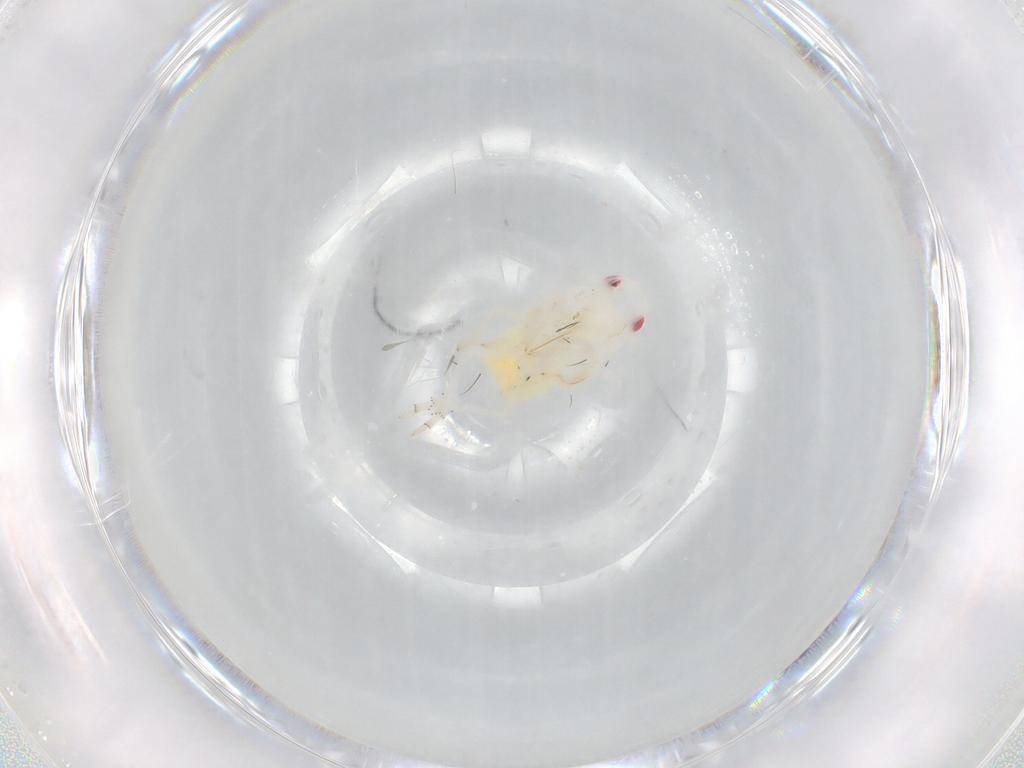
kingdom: Animalia
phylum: Arthropoda
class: Insecta
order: Hemiptera
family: Flatidae
